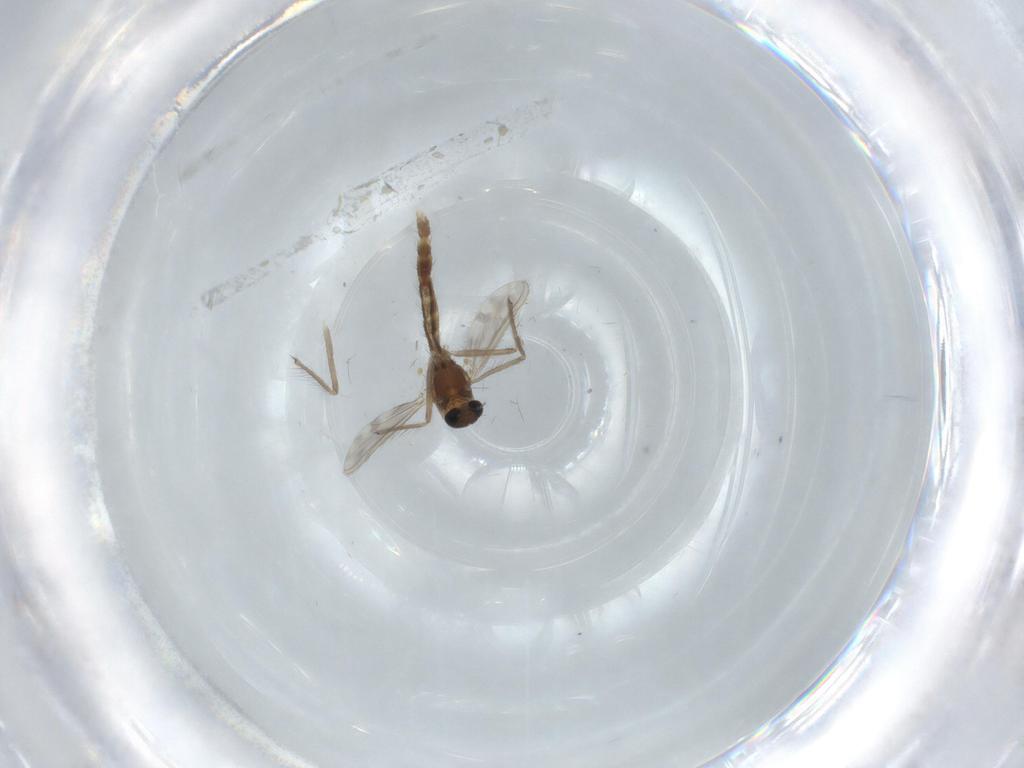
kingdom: Animalia
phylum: Arthropoda
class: Insecta
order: Diptera
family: Chironomidae
